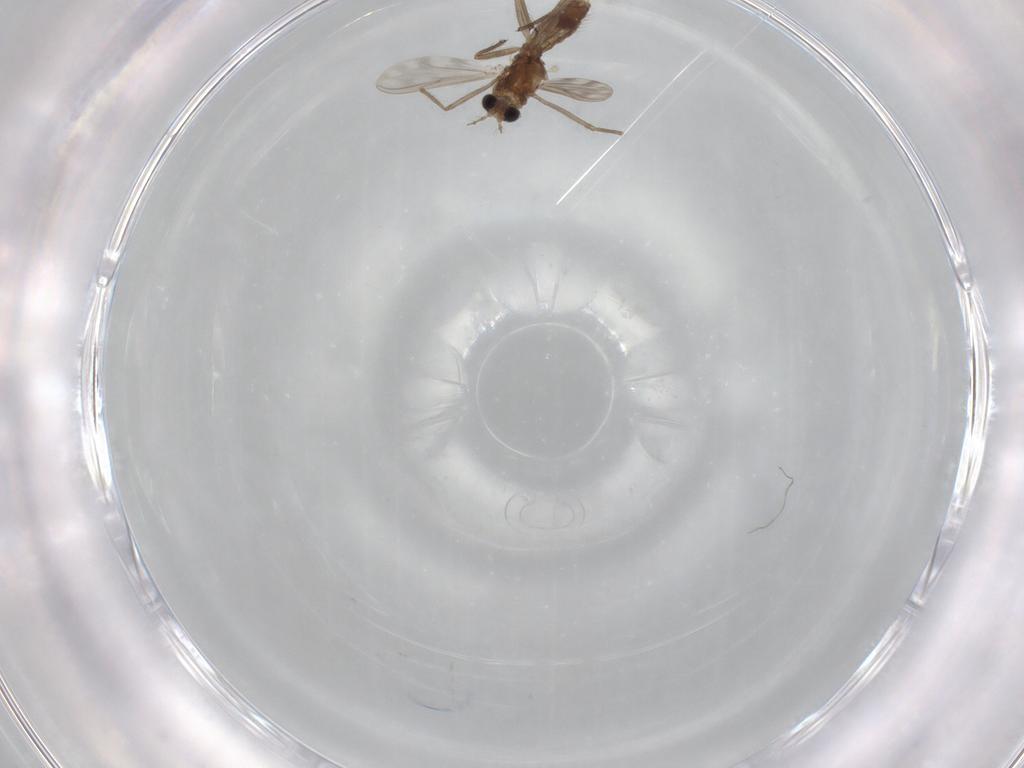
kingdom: Animalia
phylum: Arthropoda
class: Insecta
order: Diptera
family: Chironomidae
